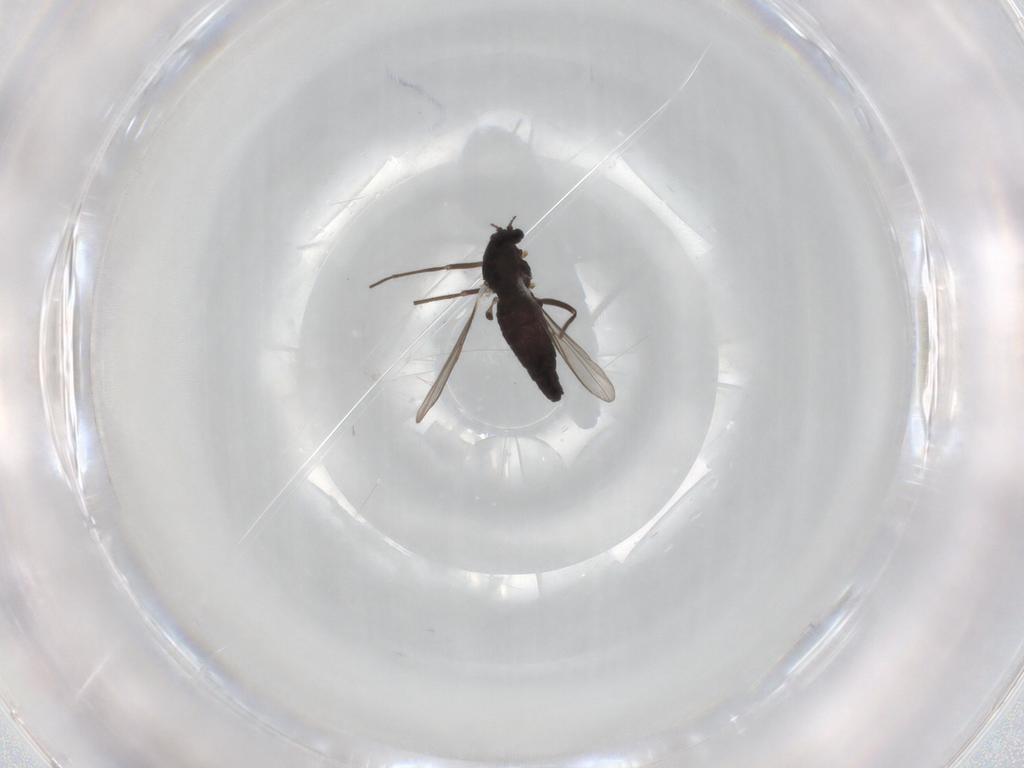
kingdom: Animalia
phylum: Arthropoda
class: Insecta
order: Diptera
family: Chironomidae
